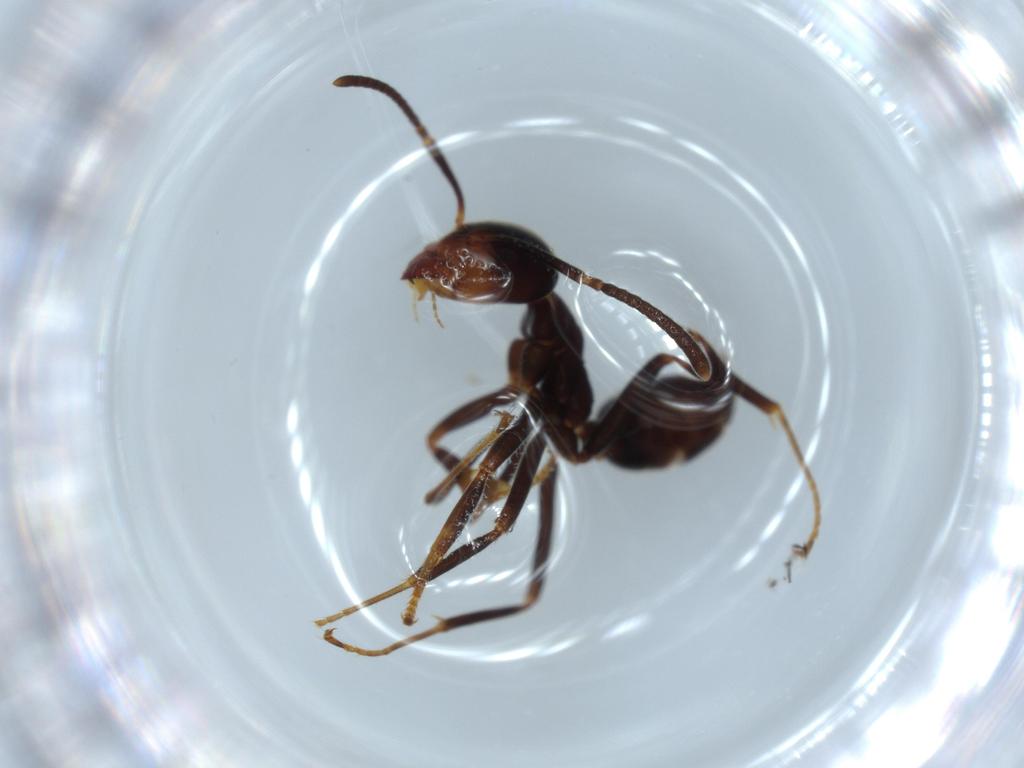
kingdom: Animalia
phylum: Arthropoda
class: Insecta
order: Hymenoptera
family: Formicidae
